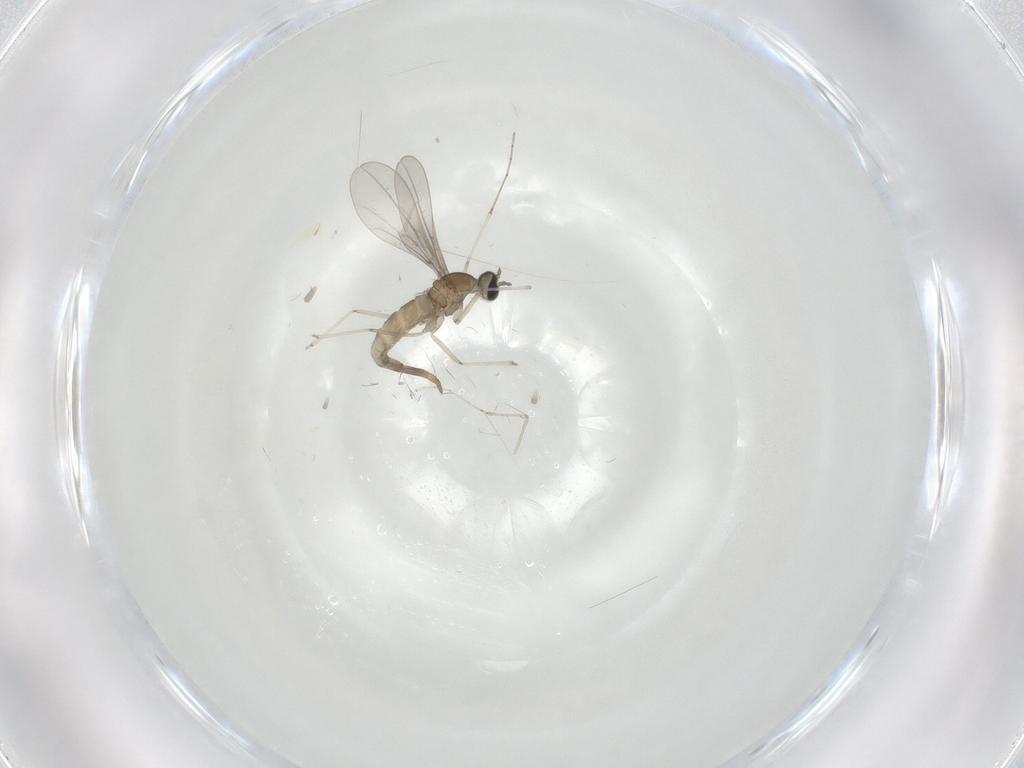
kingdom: Animalia
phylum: Arthropoda
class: Insecta
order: Diptera
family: Cecidomyiidae
